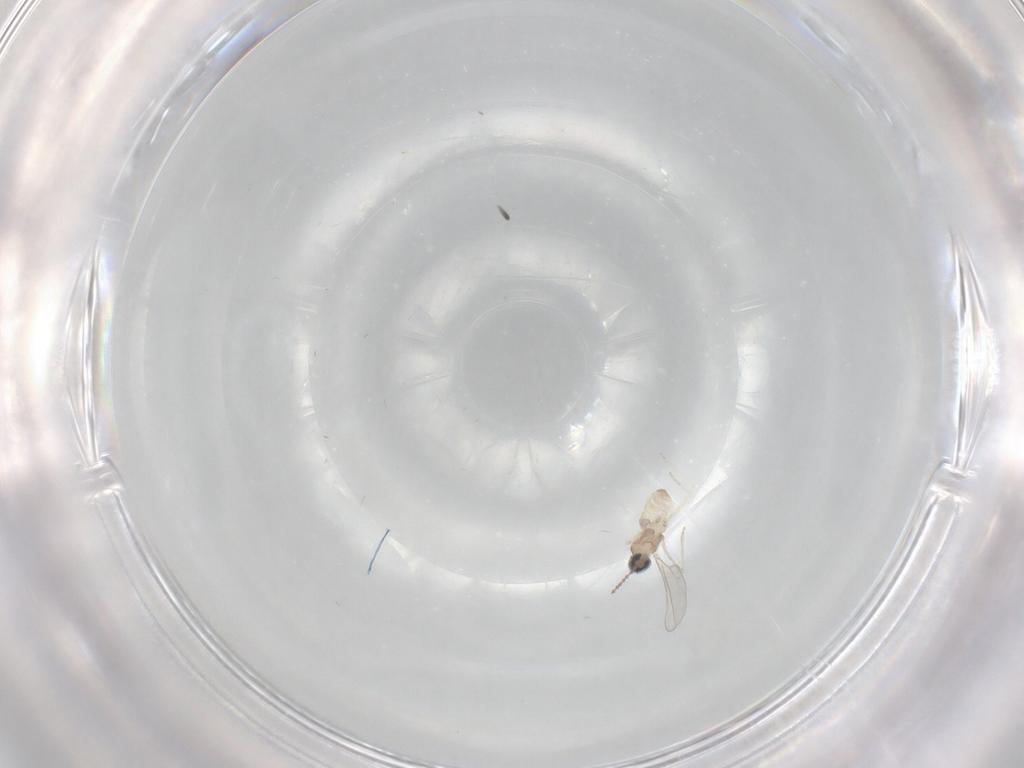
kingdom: Animalia
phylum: Arthropoda
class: Insecta
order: Diptera
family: Cecidomyiidae
